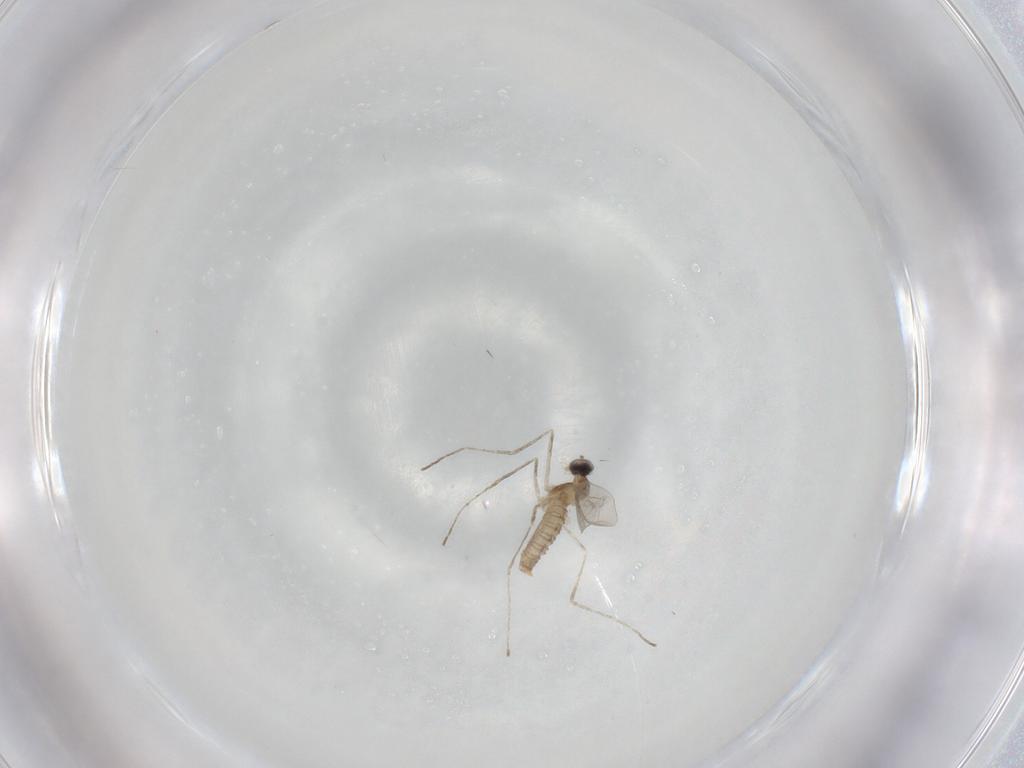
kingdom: Animalia
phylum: Arthropoda
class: Insecta
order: Diptera
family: Cecidomyiidae
